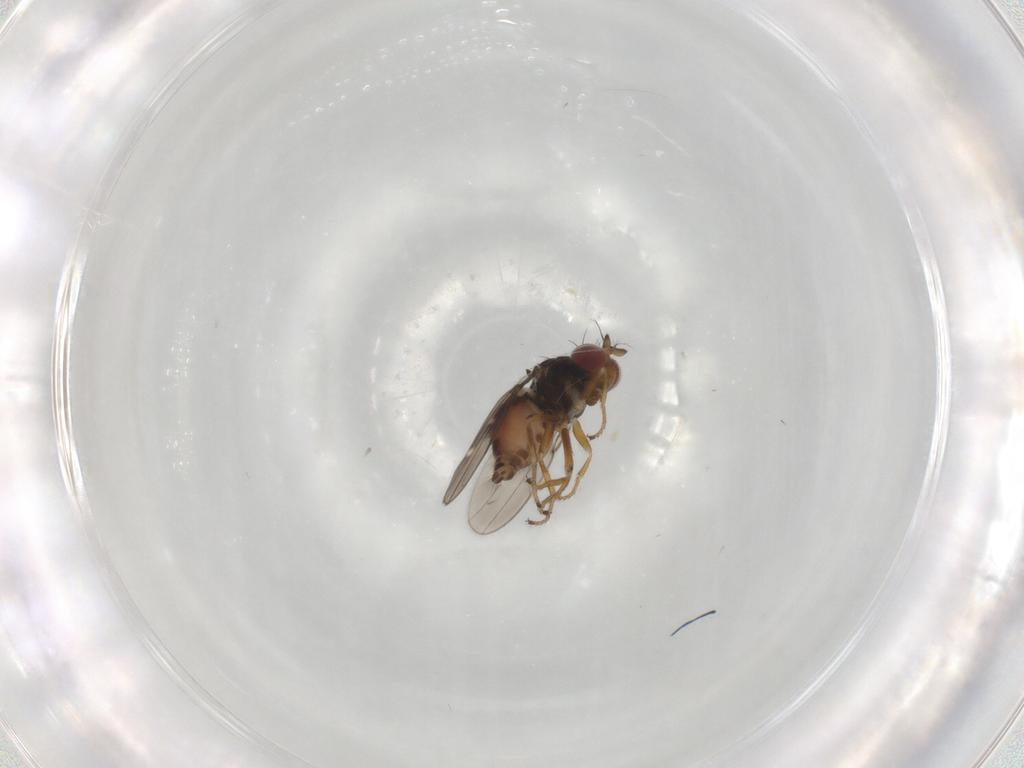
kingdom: Animalia
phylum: Arthropoda
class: Insecta
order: Diptera
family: Ephydridae
